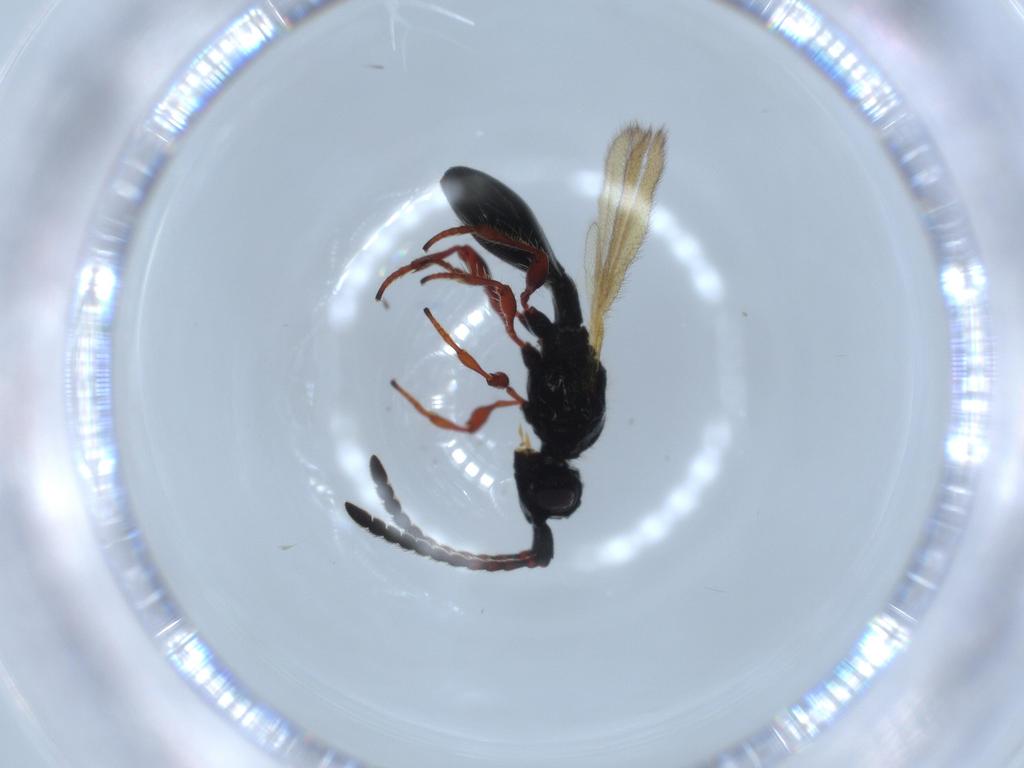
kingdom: Animalia
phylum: Arthropoda
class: Insecta
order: Hymenoptera
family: Diapriidae
